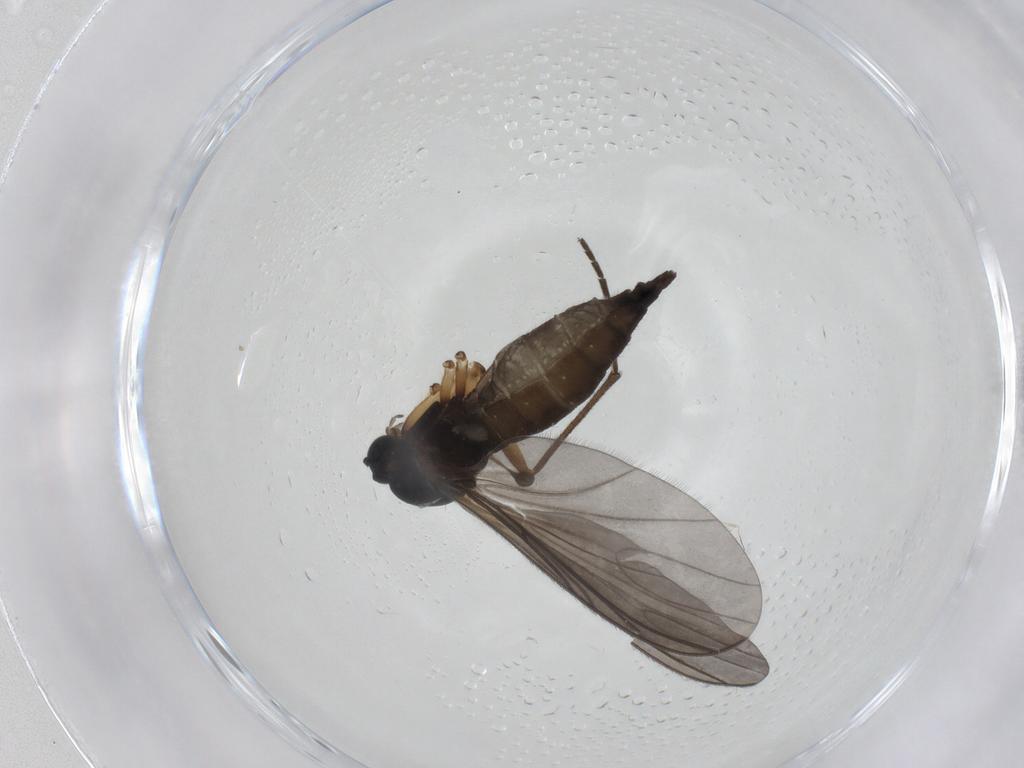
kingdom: Animalia
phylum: Arthropoda
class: Insecta
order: Diptera
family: Sciaridae
